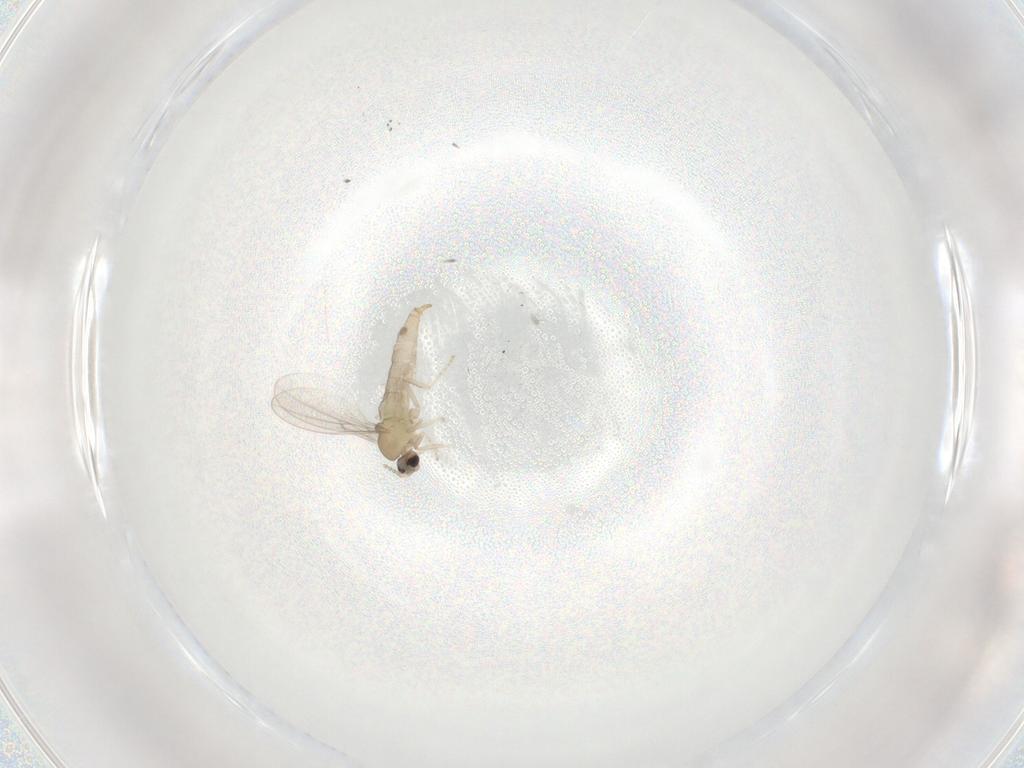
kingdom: Animalia
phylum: Arthropoda
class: Insecta
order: Diptera
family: Cecidomyiidae
